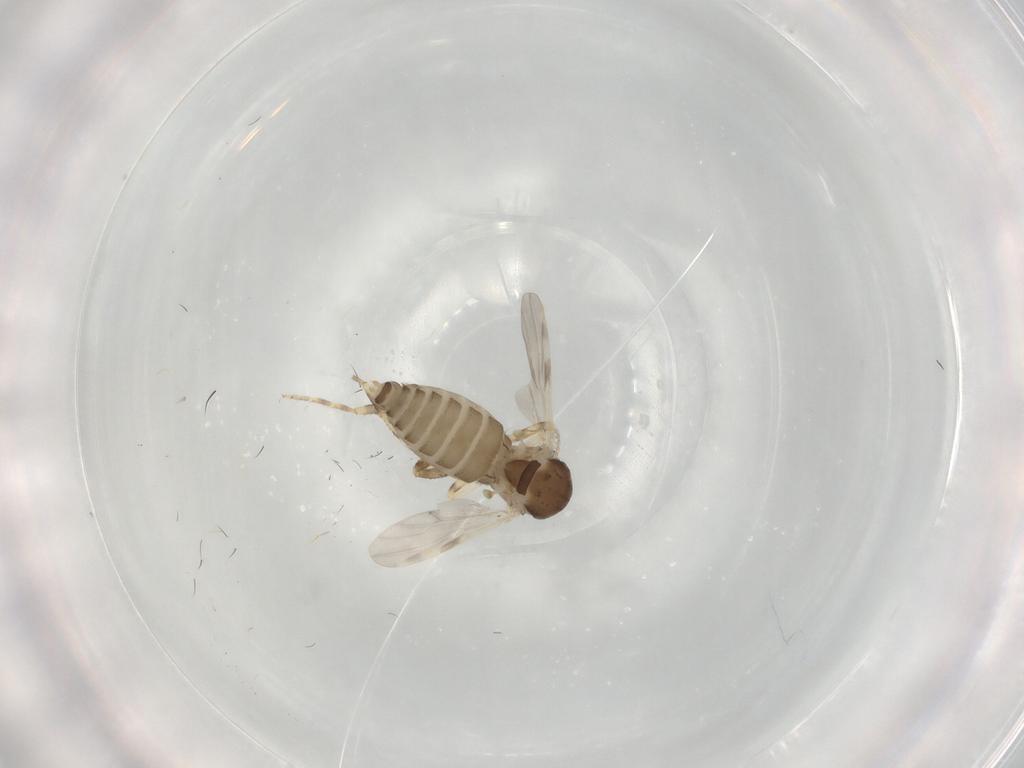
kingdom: Animalia
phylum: Arthropoda
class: Insecta
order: Diptera
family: Ceratopogonidae
